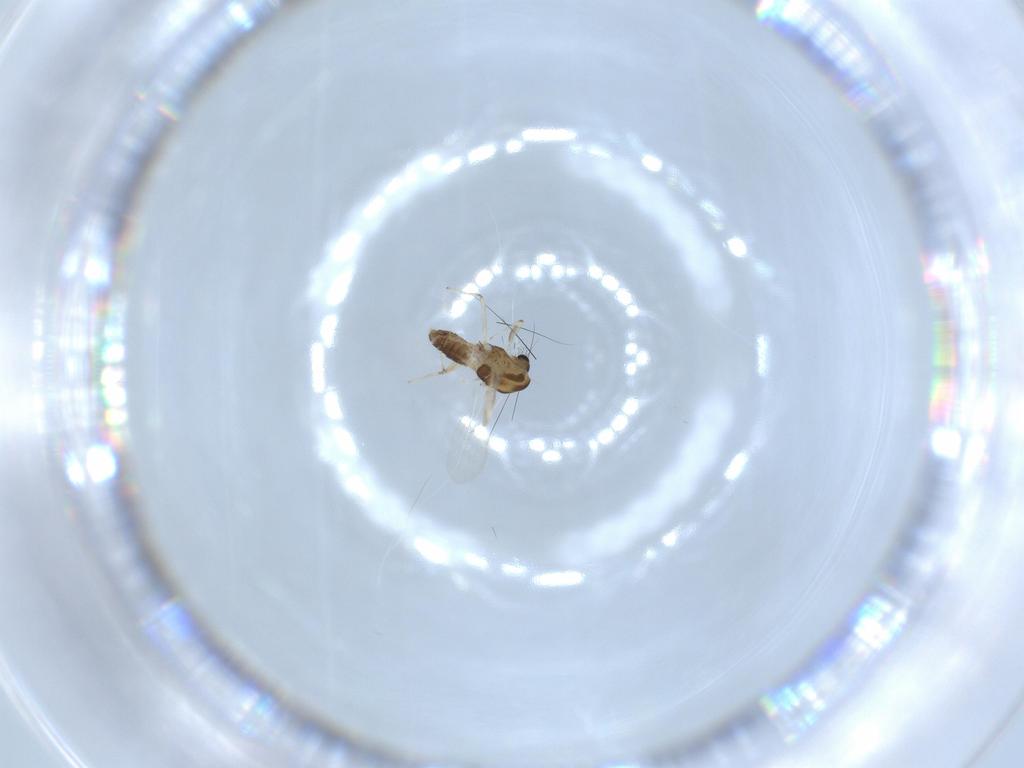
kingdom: Animalia
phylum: Arthropoda
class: Insecta
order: Diptera
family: Chironomidae
